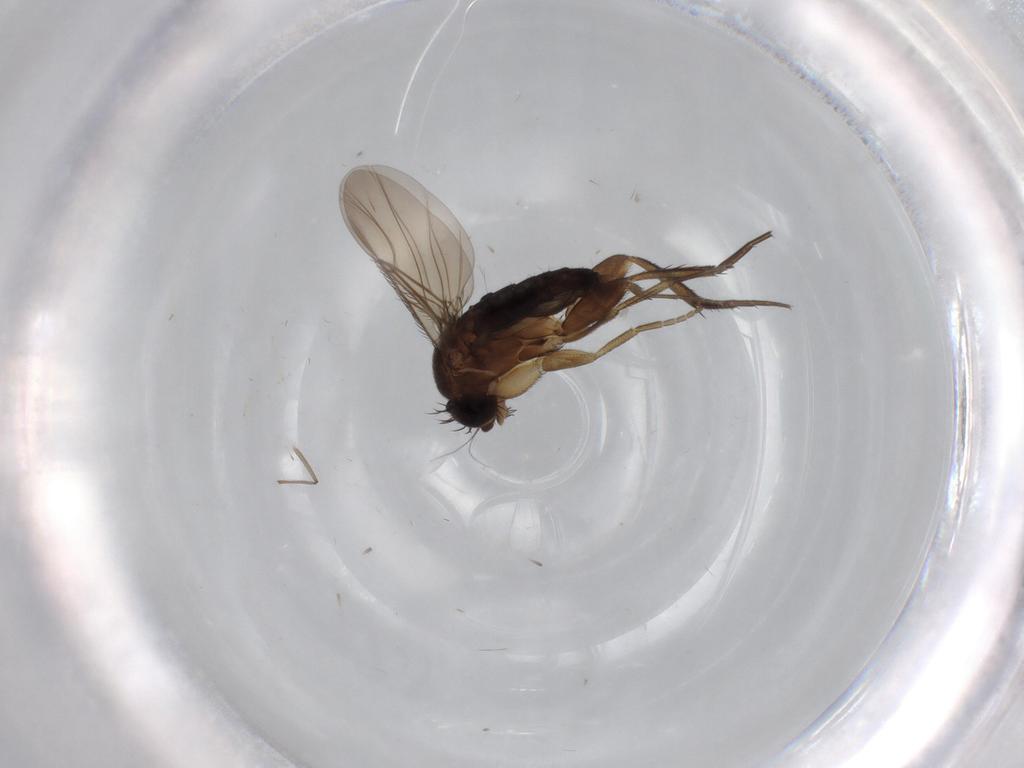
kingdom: Animalia
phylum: Arthropoda
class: Insecta
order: Diptera
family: Phoridae
